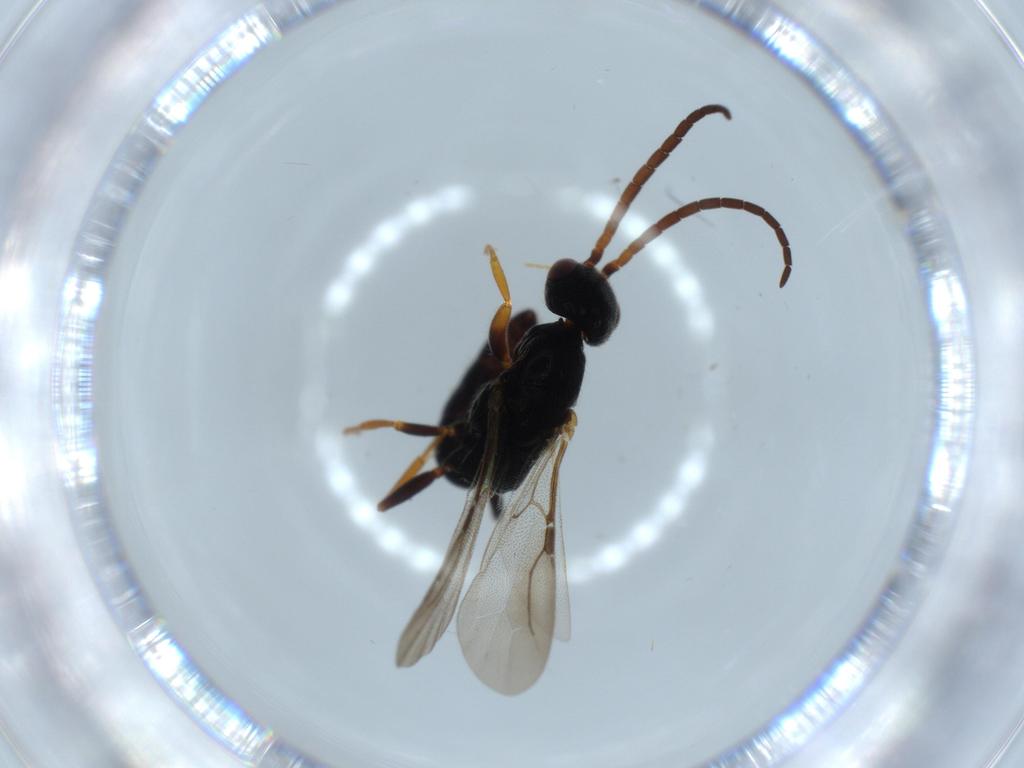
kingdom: Animalia
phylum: Arthropoda
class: Insecta
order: Hymenoptera
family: Bethylidae
